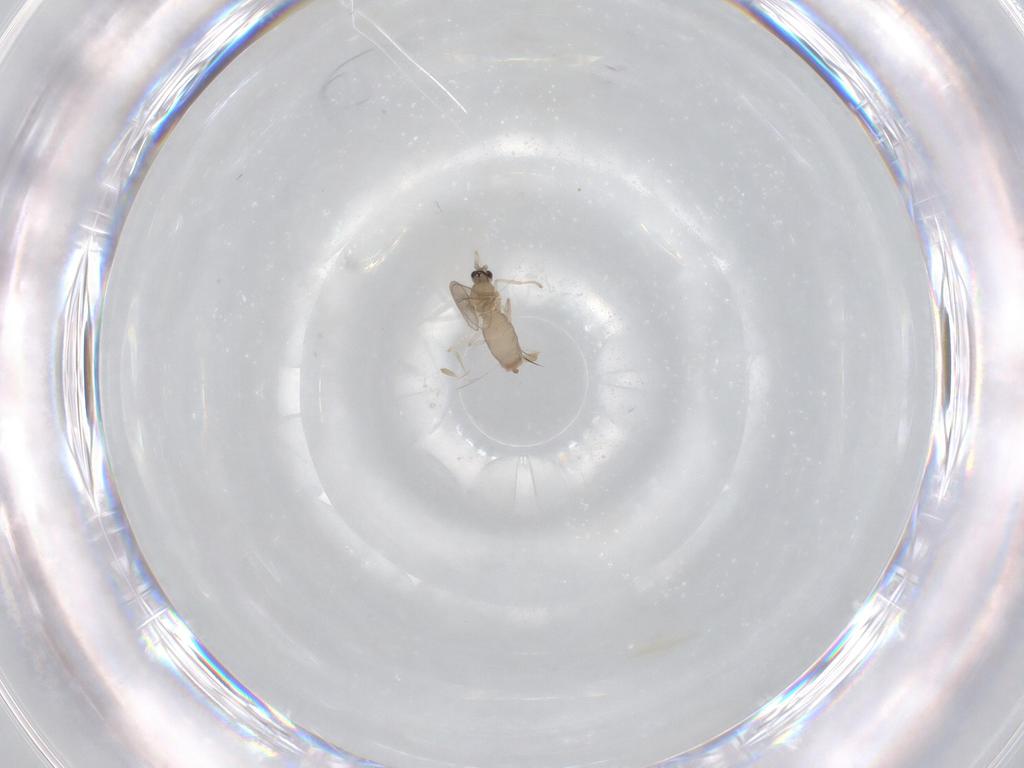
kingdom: Animalia
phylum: Arthropoda
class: Insecta
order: Diptera
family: Cecidomyiidae
